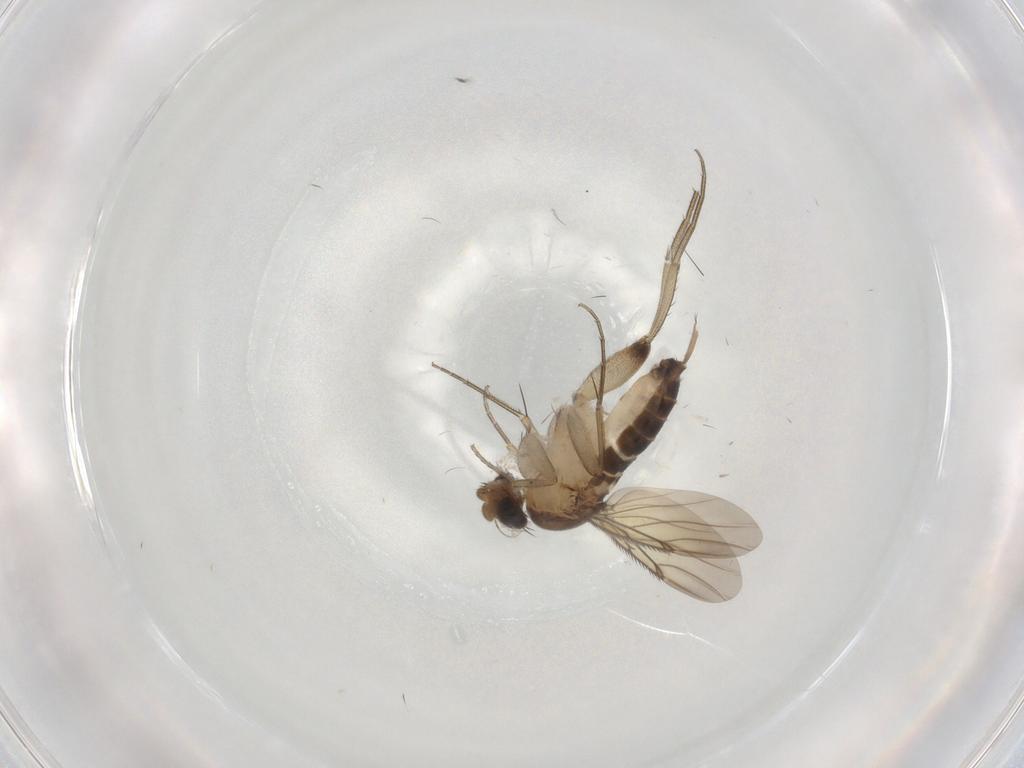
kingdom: Animalia
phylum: Arthropoda
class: Insecta
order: Diptera
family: Phoridae
